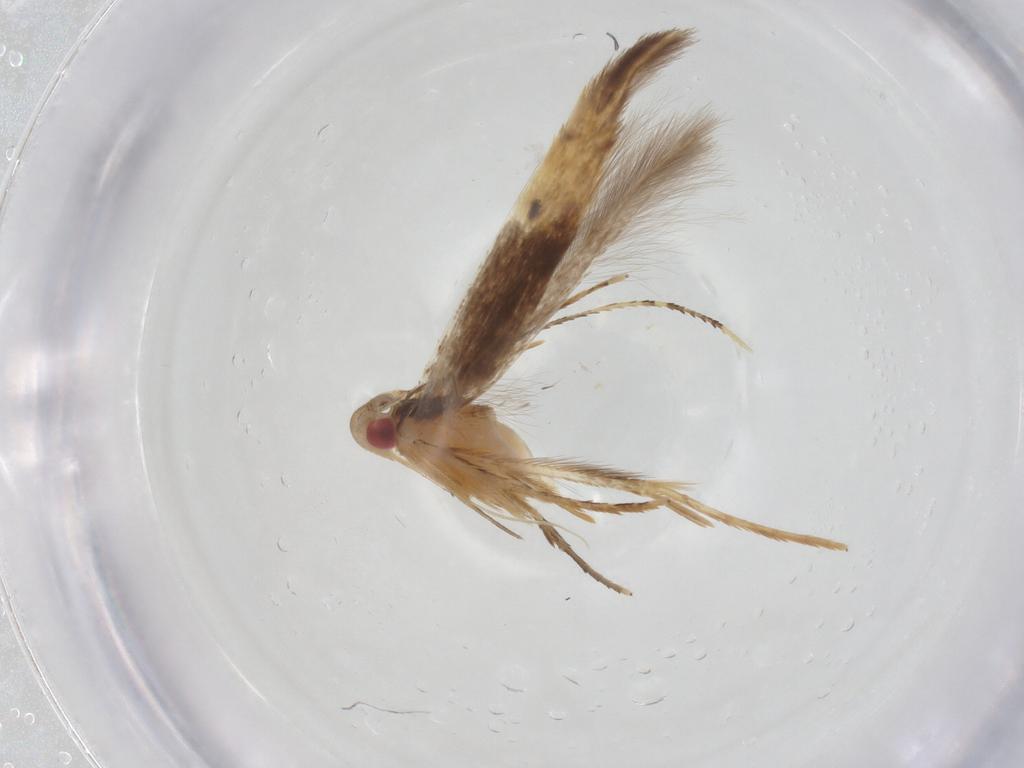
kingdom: Animalia
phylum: Arthropoda
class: Insecta
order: Lepidoptera
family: Gelechiidae
